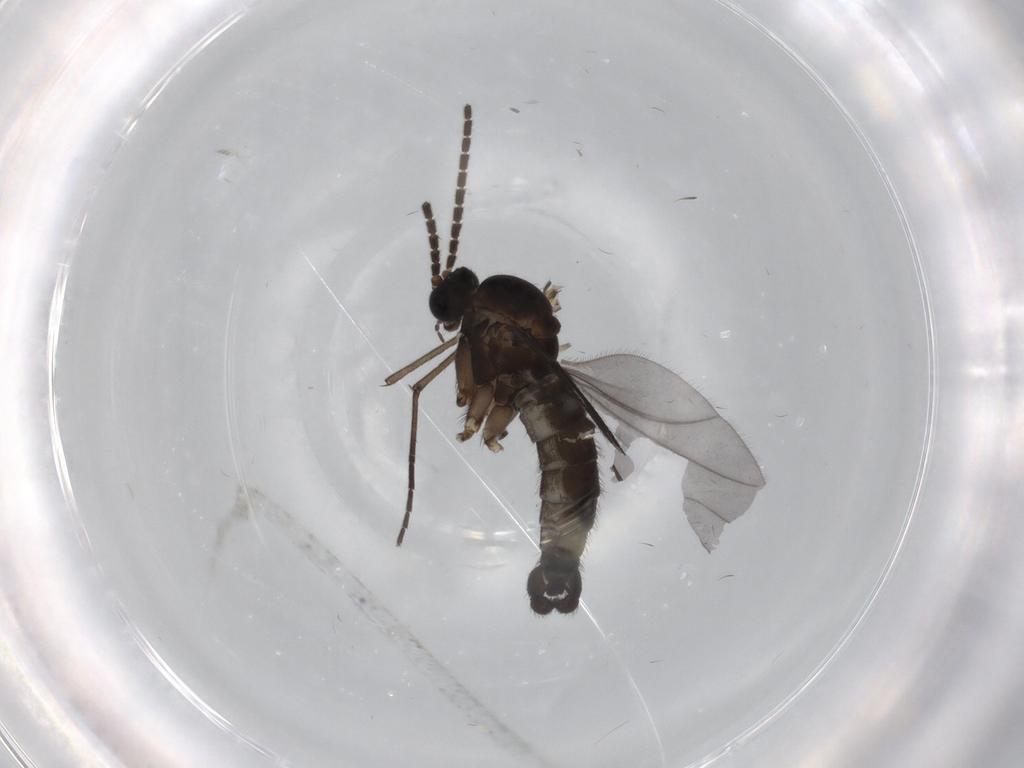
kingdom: Animalia
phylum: Arthropoda
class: Insecta
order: Diptera
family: Sciaridae
